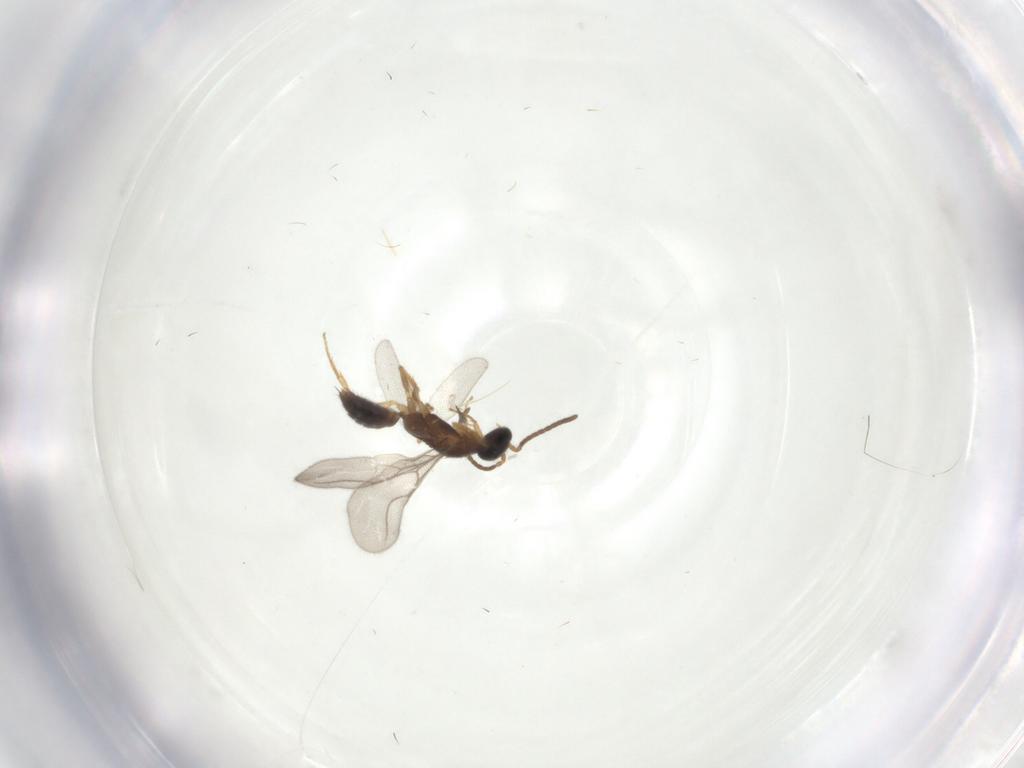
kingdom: Animalia
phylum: Arthropoda
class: Insecta
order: Hymenoptera
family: Bethylidae
